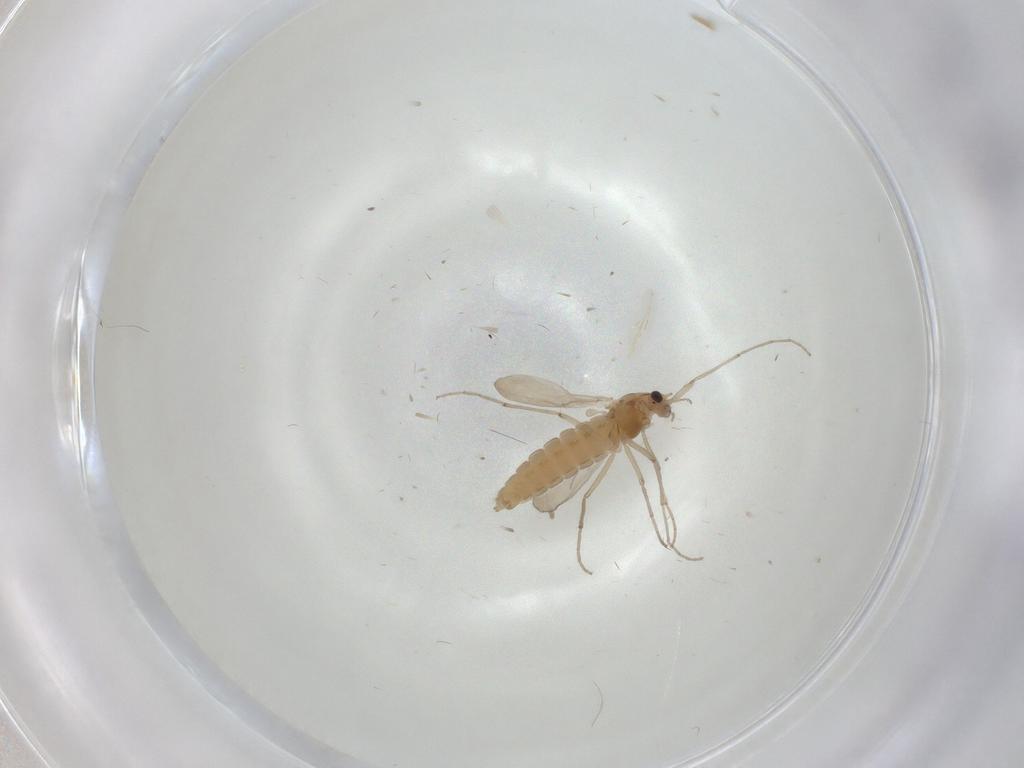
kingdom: Animalia
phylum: Arthropoda
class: Insecta
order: Diptera
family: Chironomidae
